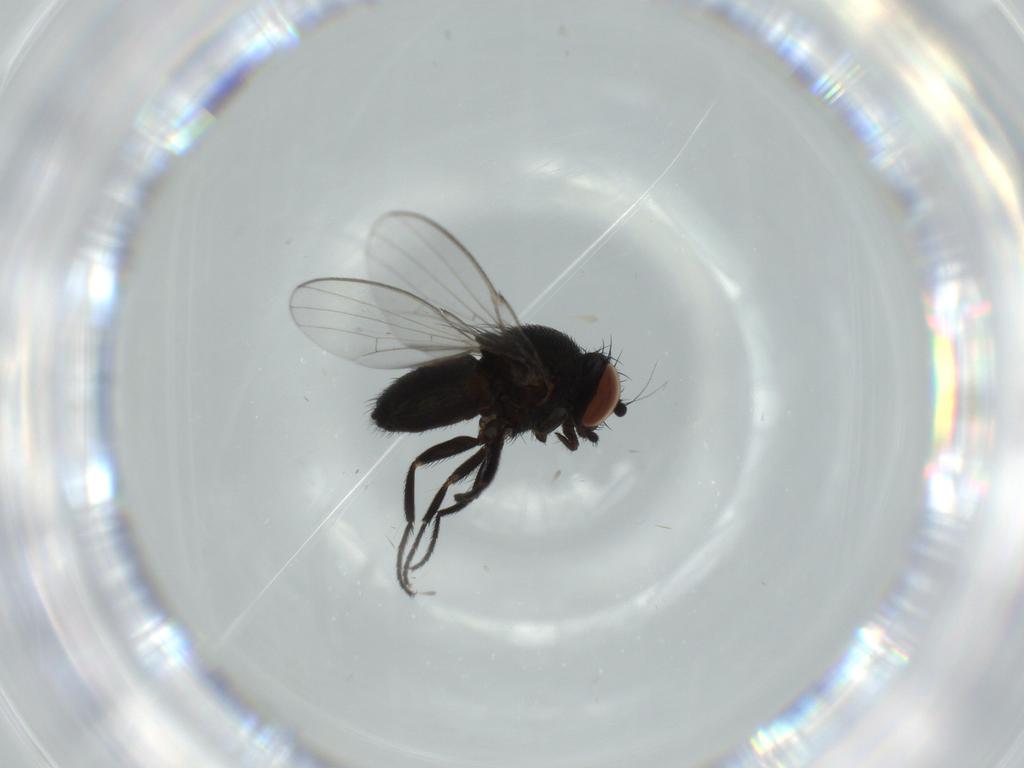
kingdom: Animalia
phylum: Arthropoda
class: Insecta
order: Diptera
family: Milichiidae
